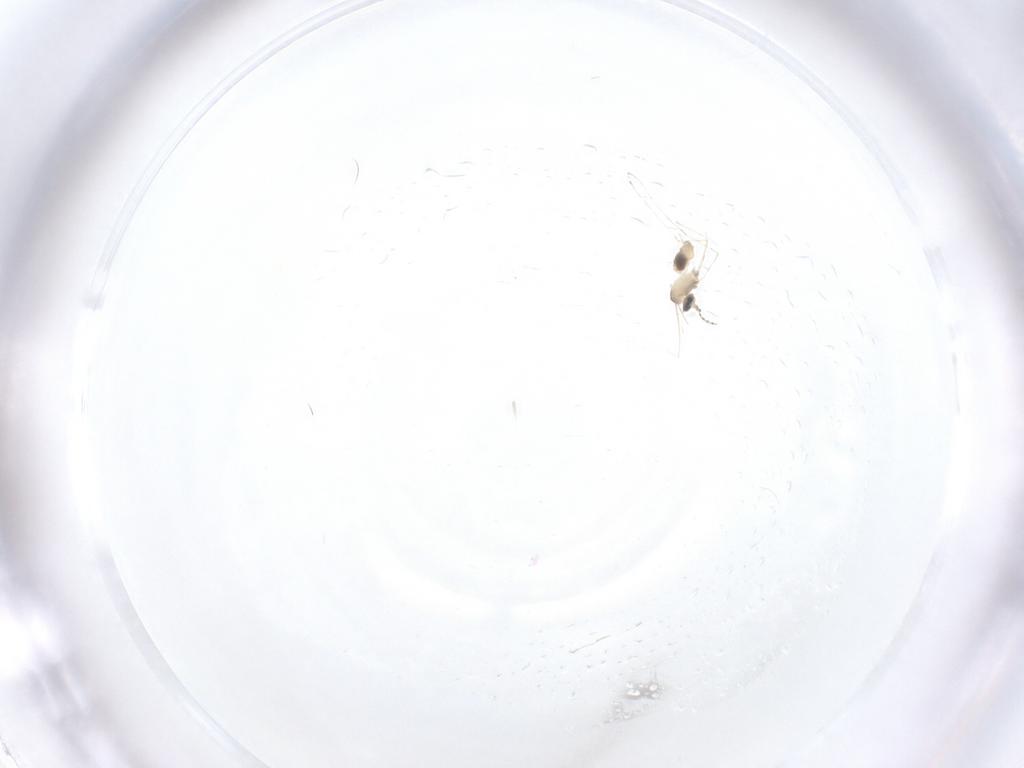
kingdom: Animalia
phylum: Arthropoda
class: Insecta
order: Diptera
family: Cecidomyiidae
